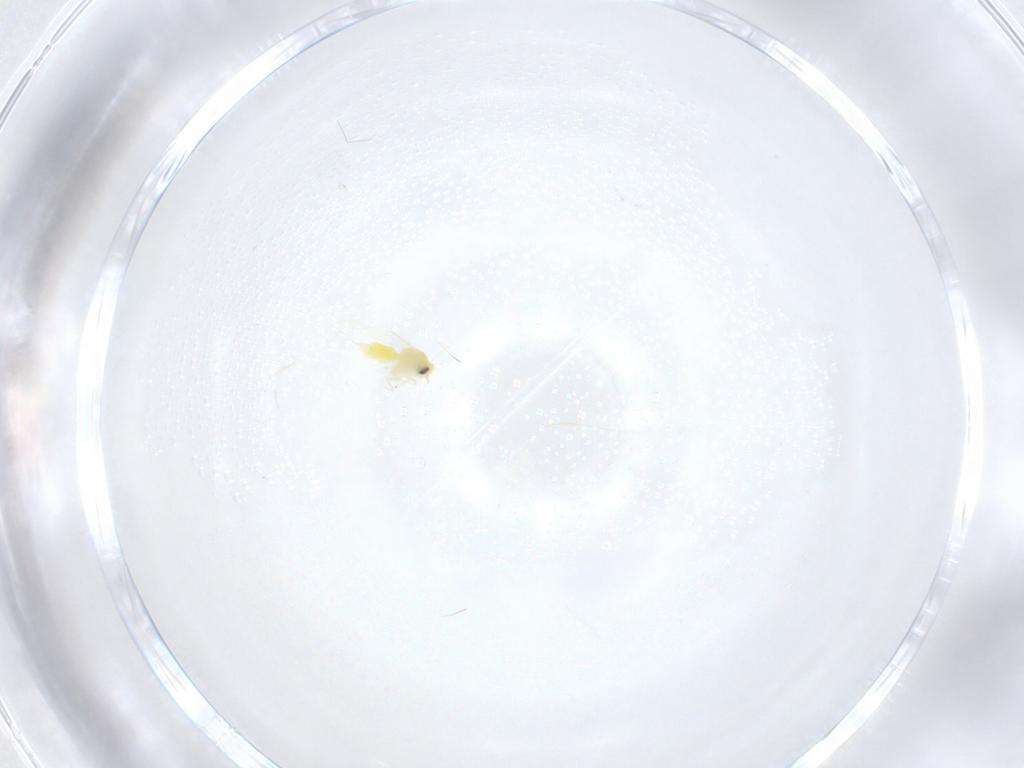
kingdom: Animalia
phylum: Arthropoda
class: Insecta
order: Hemiptera
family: Aleyrodidae
